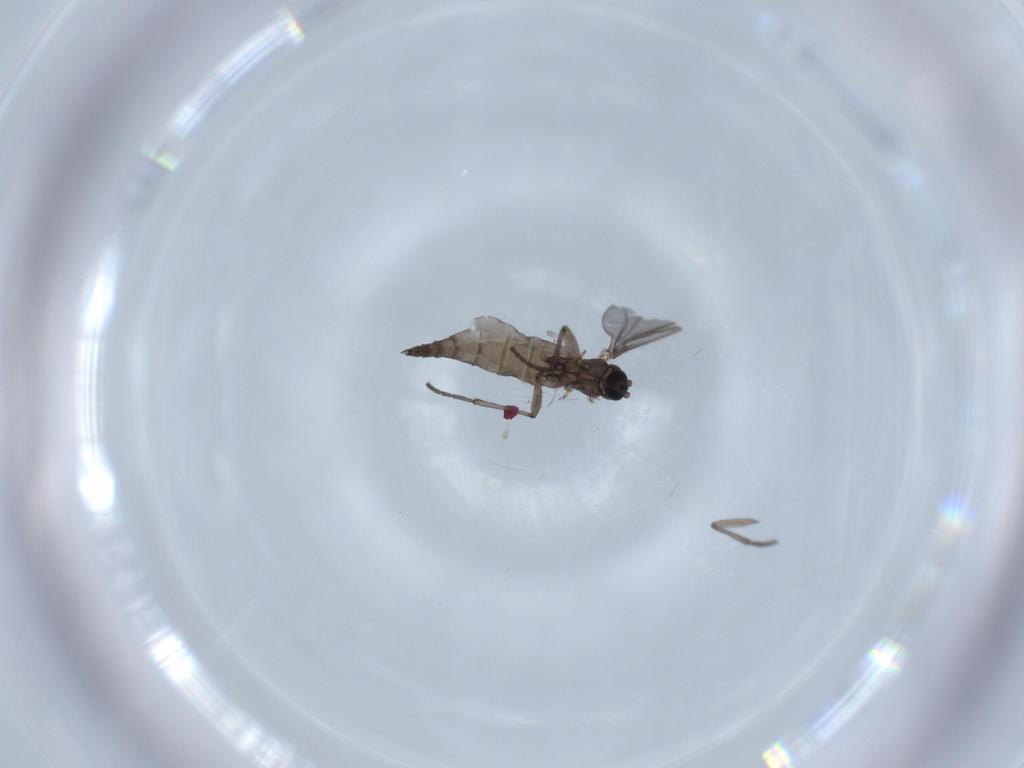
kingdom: Animalia
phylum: Arthropoda
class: Insecta
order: Diptera
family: Sciaridae
